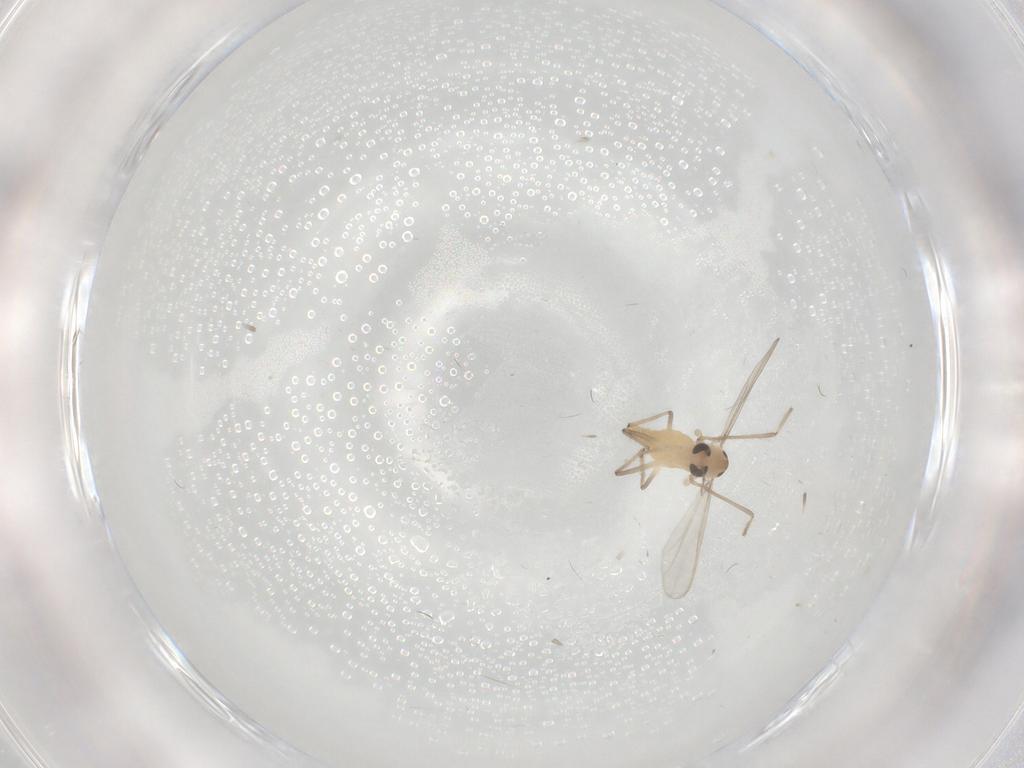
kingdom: Animalia
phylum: Arthropoda
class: Insecta
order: Diptera
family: Chironomidae
